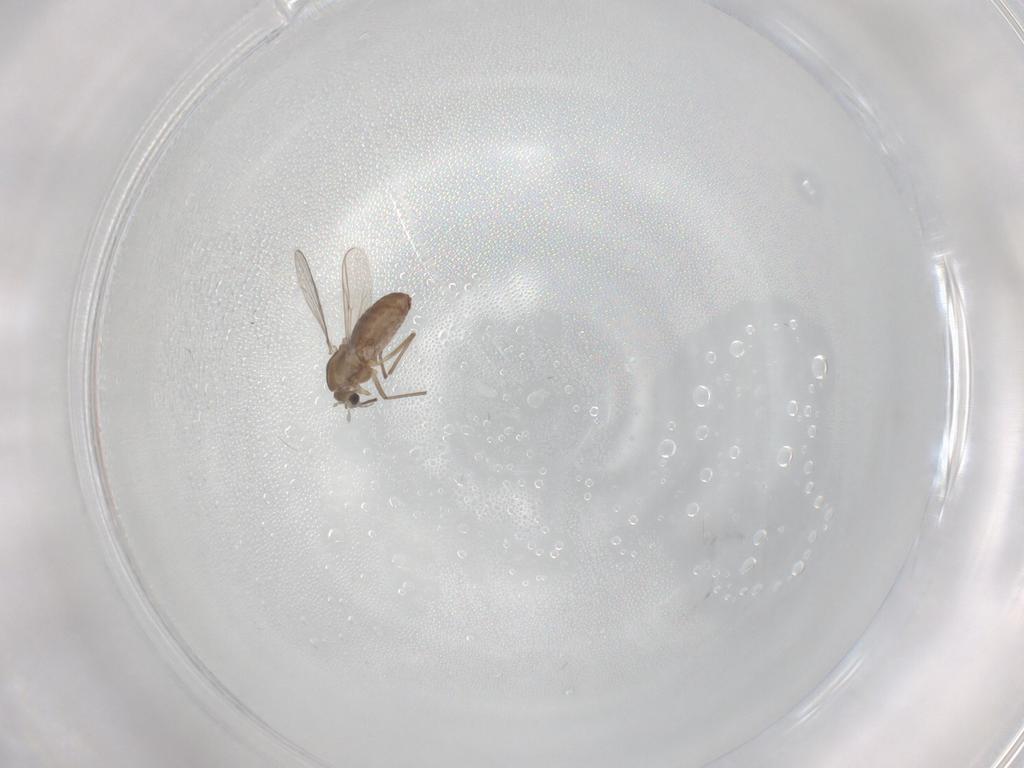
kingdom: Animalia
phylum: Arthropoda
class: Insecta
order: Diptera
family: Chironomidae
